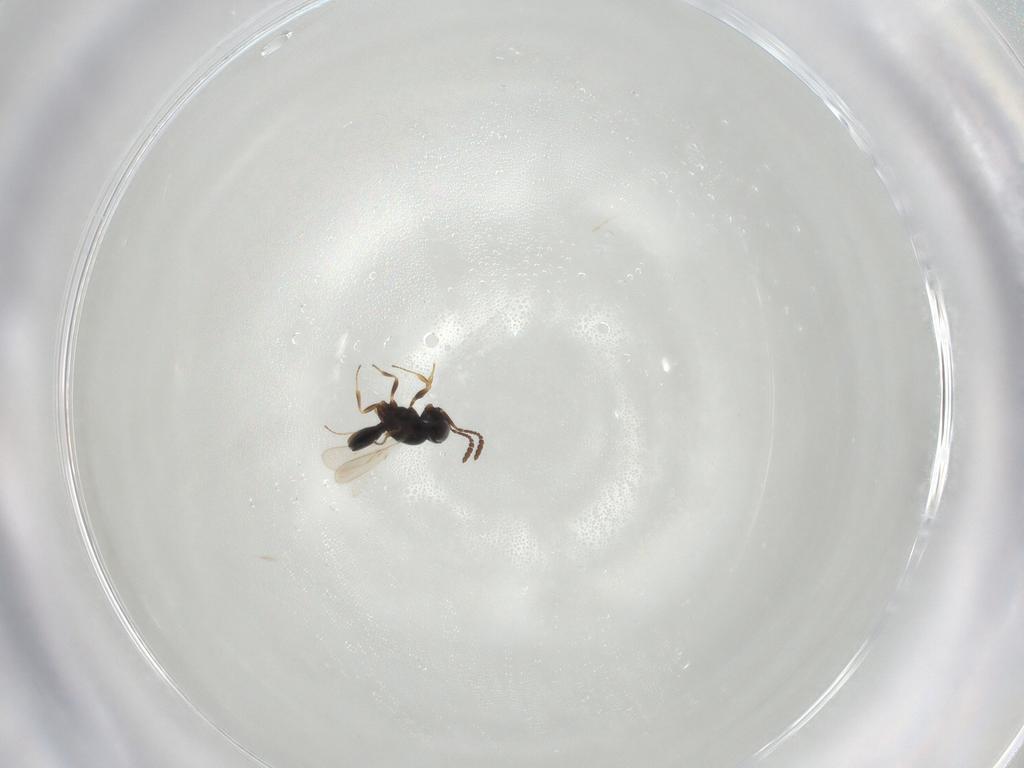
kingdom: Animalia
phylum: Arthropoda
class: Insecta
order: Hymenoptera
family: Scelionidae
